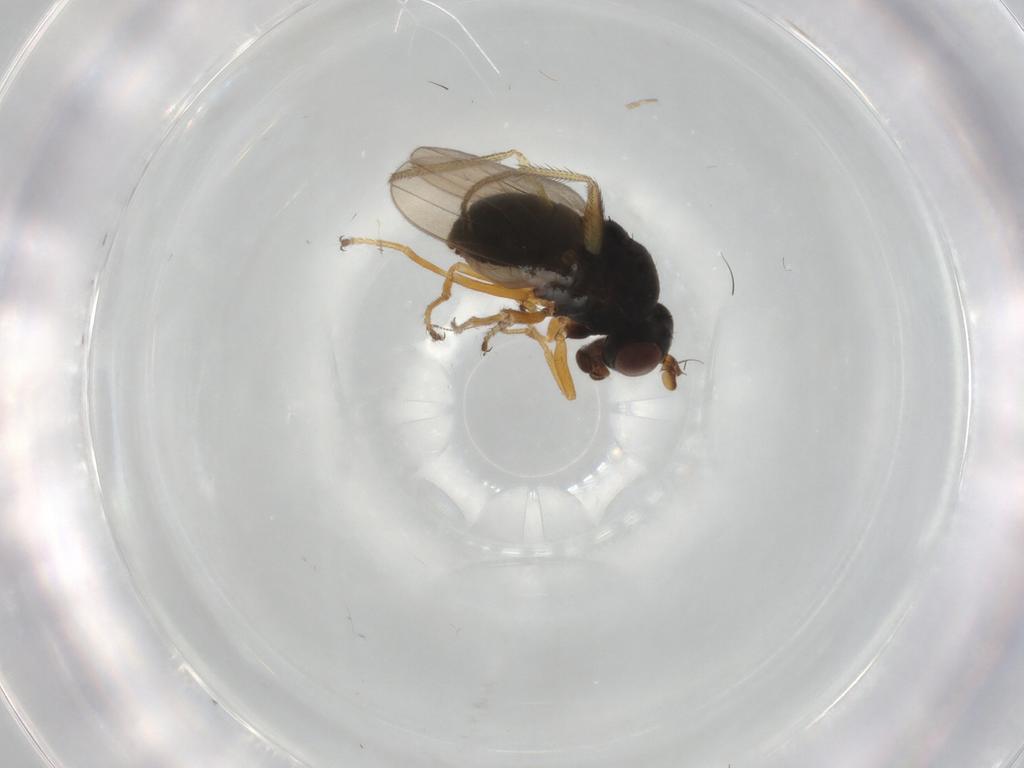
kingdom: Animalia
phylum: Arthropoda
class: Insecta
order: Diptera
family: Ephydridae
